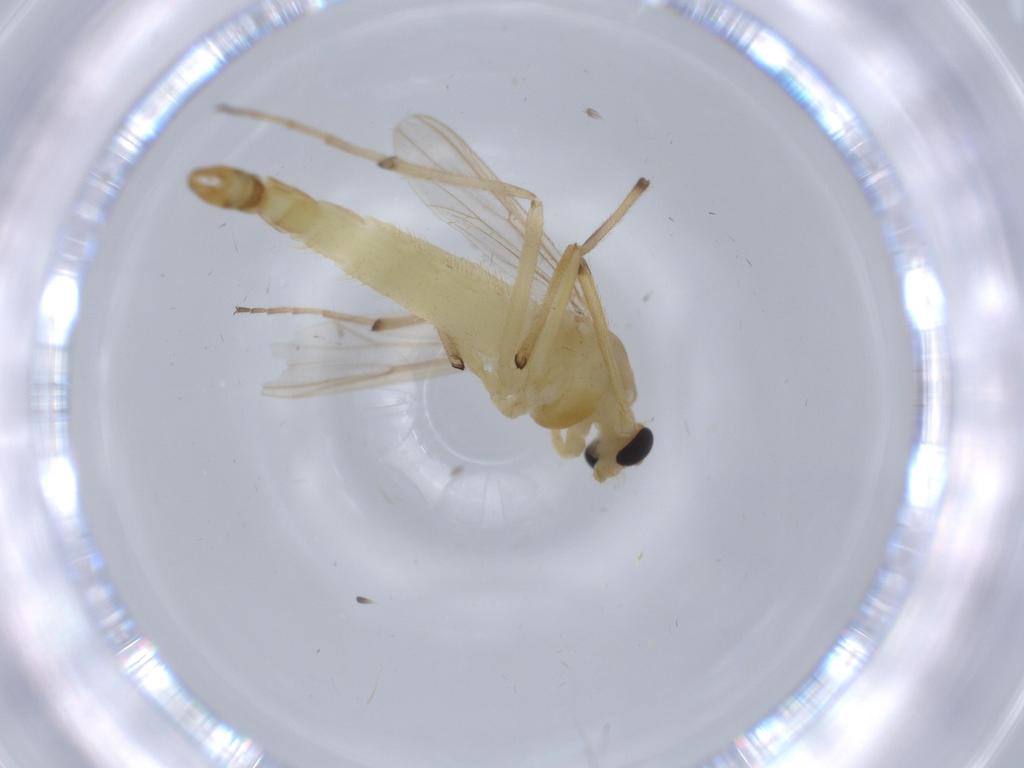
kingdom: Animalia
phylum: Arthropoda
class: Insecta
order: Diptera
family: Chironomidae
